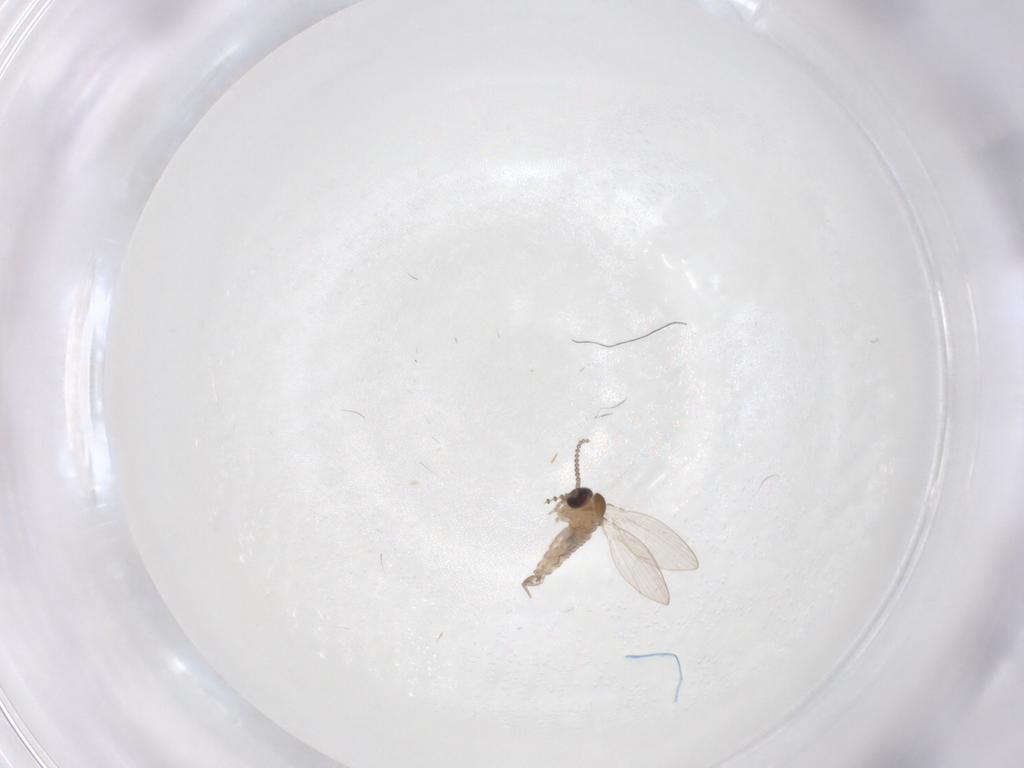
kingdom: Animalia
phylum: Arthropoda
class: Insecta
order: Diptera
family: Psychodidae
